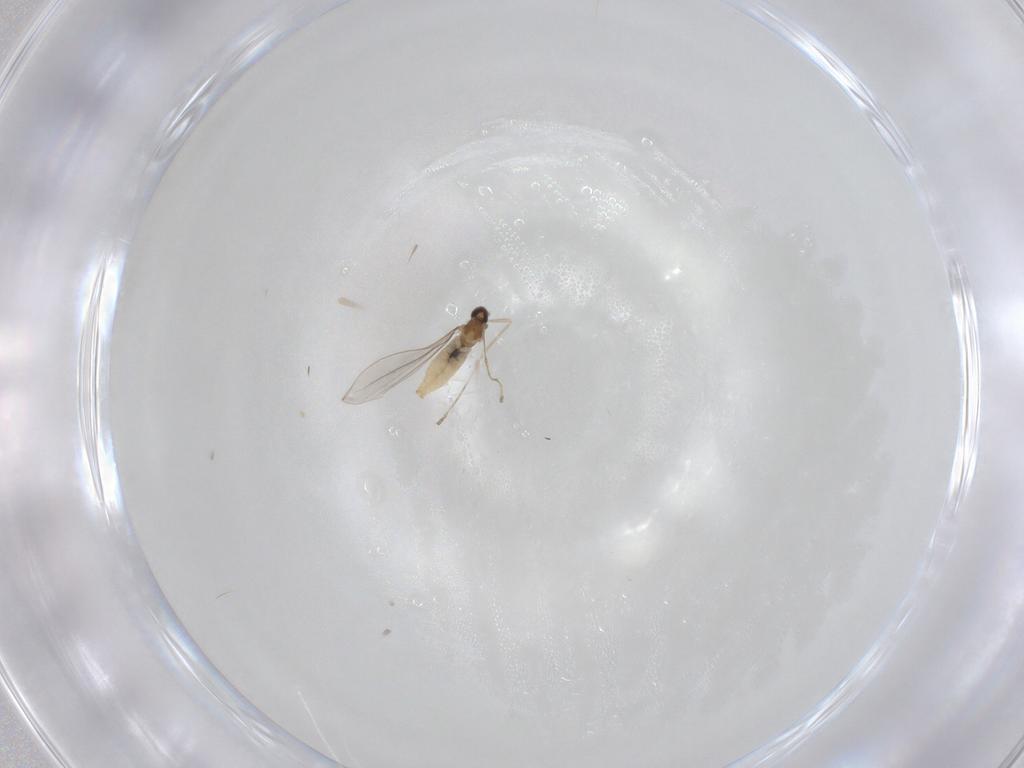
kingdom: Animalia
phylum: Arthropoda
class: Insecta
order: Diptera
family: Cecidomyiidae
